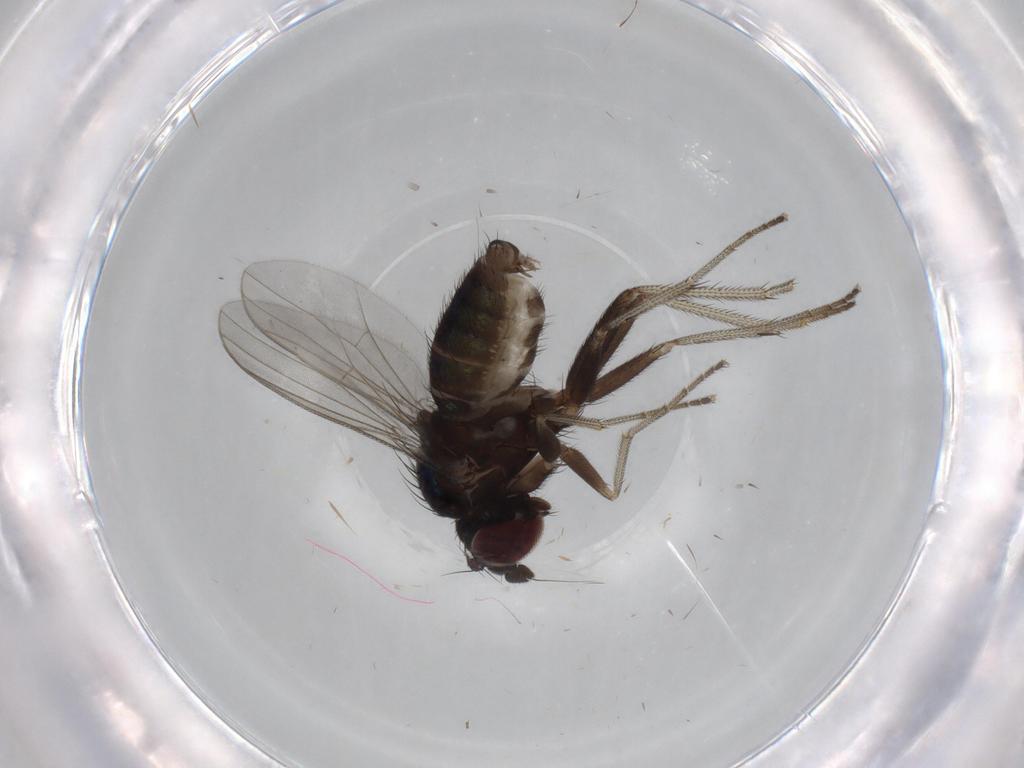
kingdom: Animalia
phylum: Arthropoda
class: Insecta
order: Diptera
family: Dolichopodidae
